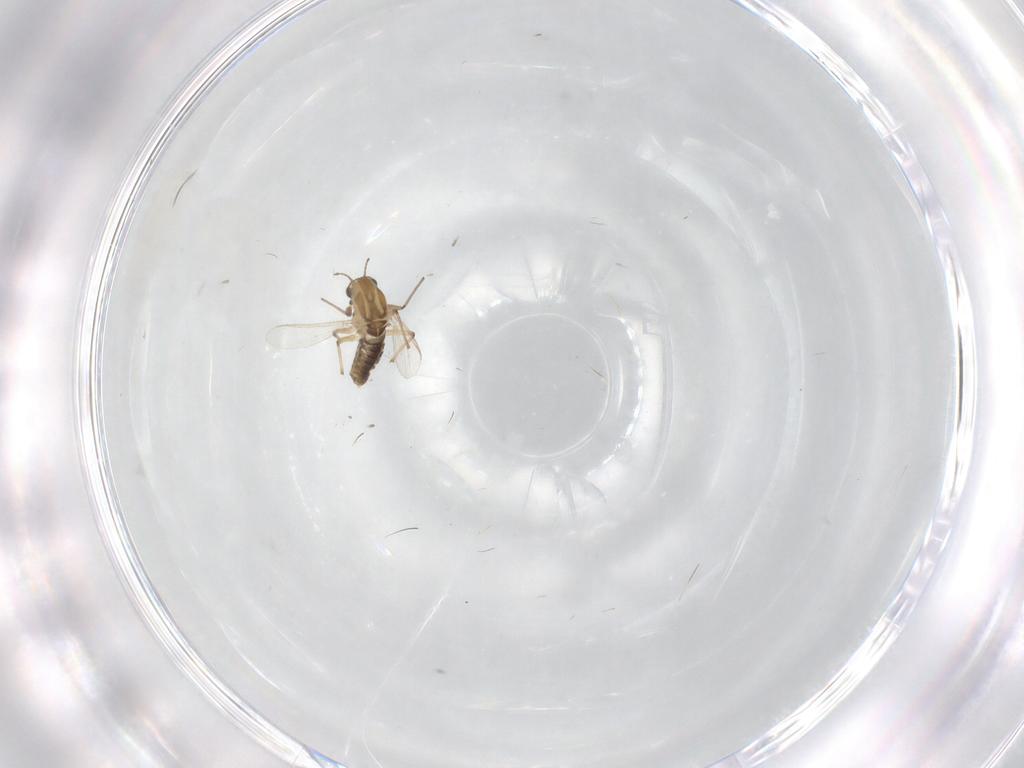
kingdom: Animalia
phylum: Arthropoda
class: Insecta
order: Diptera
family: Chironomidae
